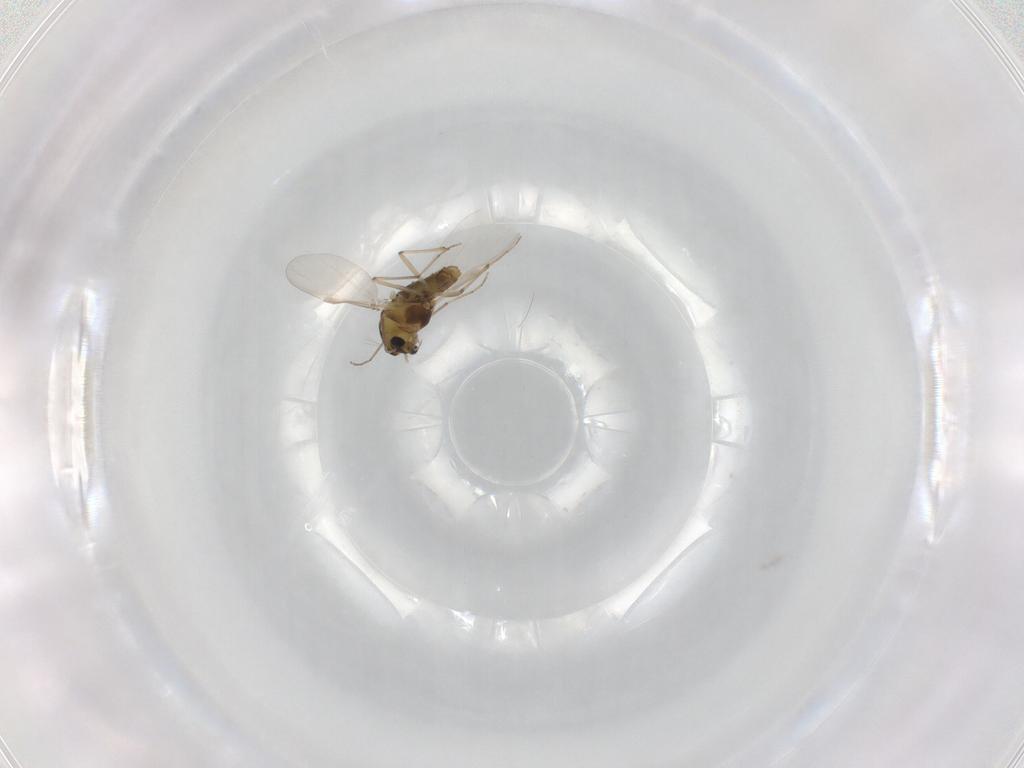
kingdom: Animalia
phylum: Arthropoda
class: Insecta
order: Diptera
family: Chironomidae
